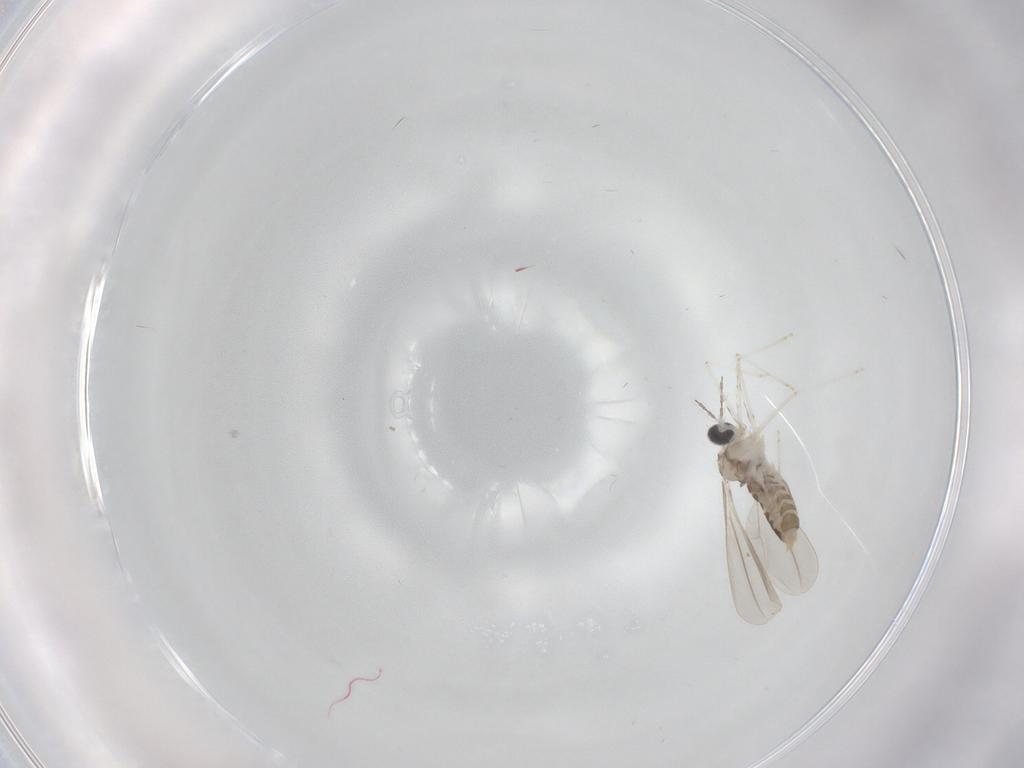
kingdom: Animalia
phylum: Arthropoda
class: Insecta
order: Diptera
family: Cecidomyiidae
